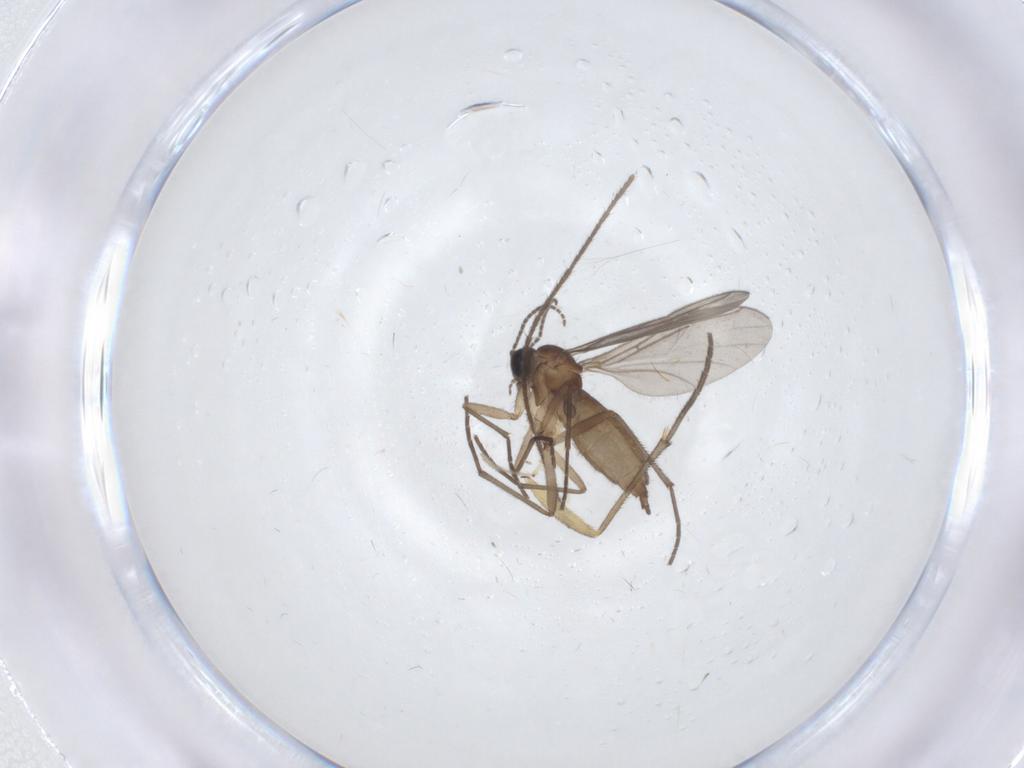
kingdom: Animalia
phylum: Arthropoda
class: Insecta
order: Diptera
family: Sciaridae
